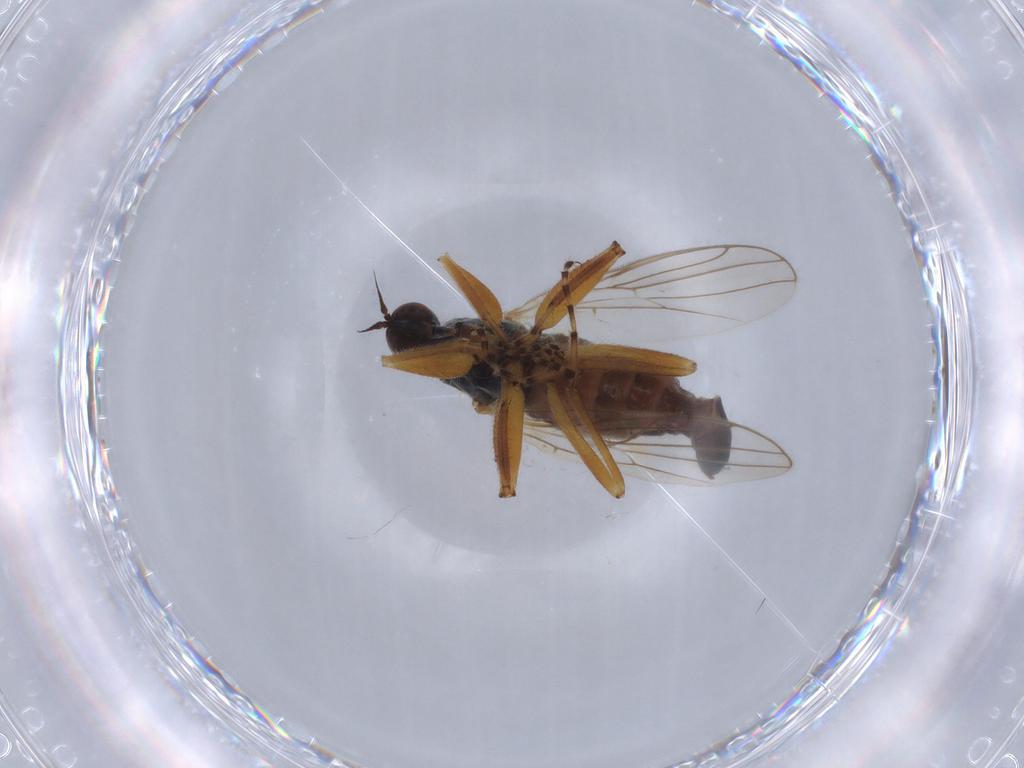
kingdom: Animalia
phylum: Arthropoda
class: Insecta
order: Diptera
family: Hybotidae
